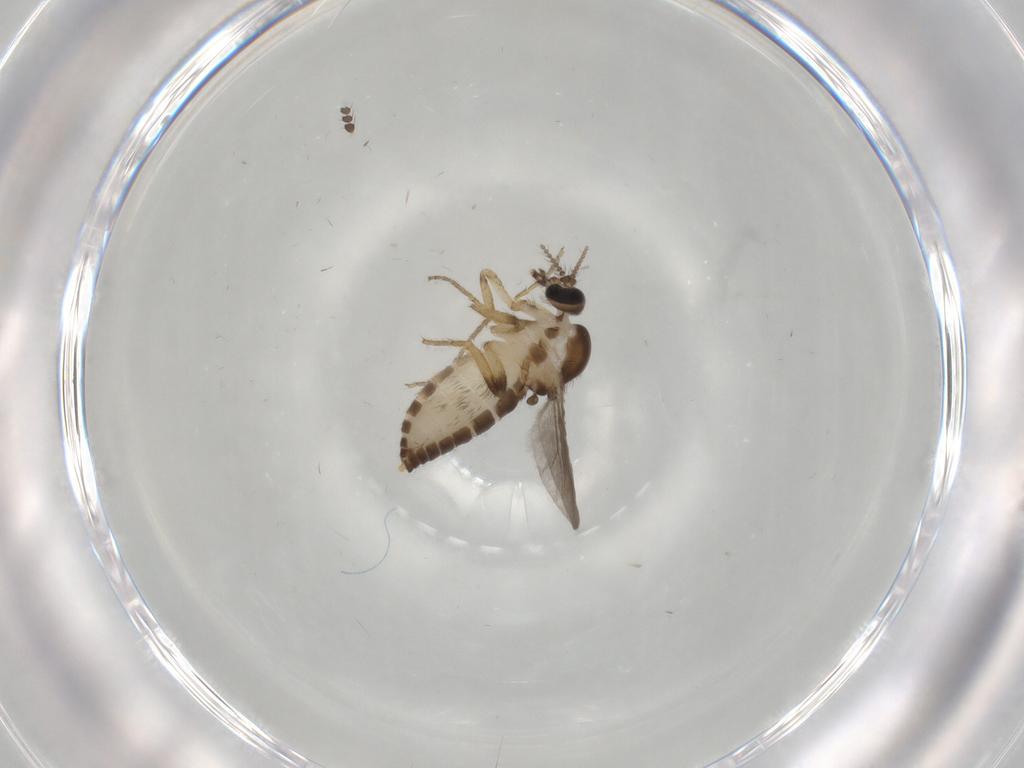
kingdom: Animalia
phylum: Arthropoda
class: Insecta
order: Diptera
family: Ceratopogonidae
